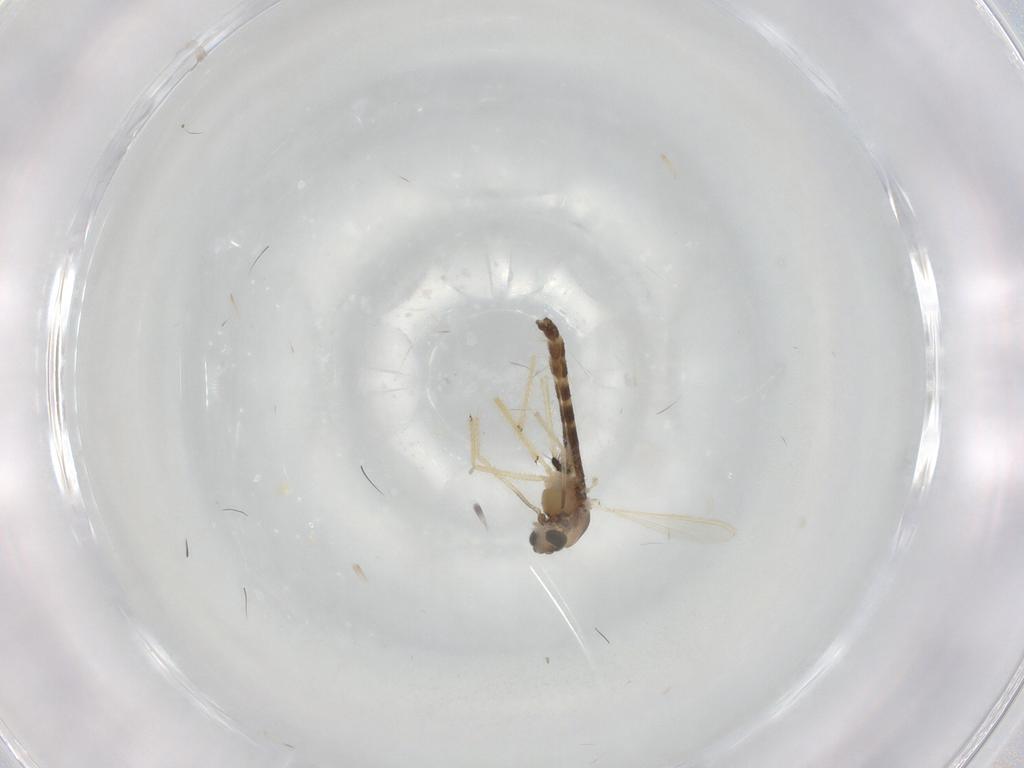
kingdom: Animalia
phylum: Arthropoda
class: Insecta
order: Diptera
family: Chironomidae
